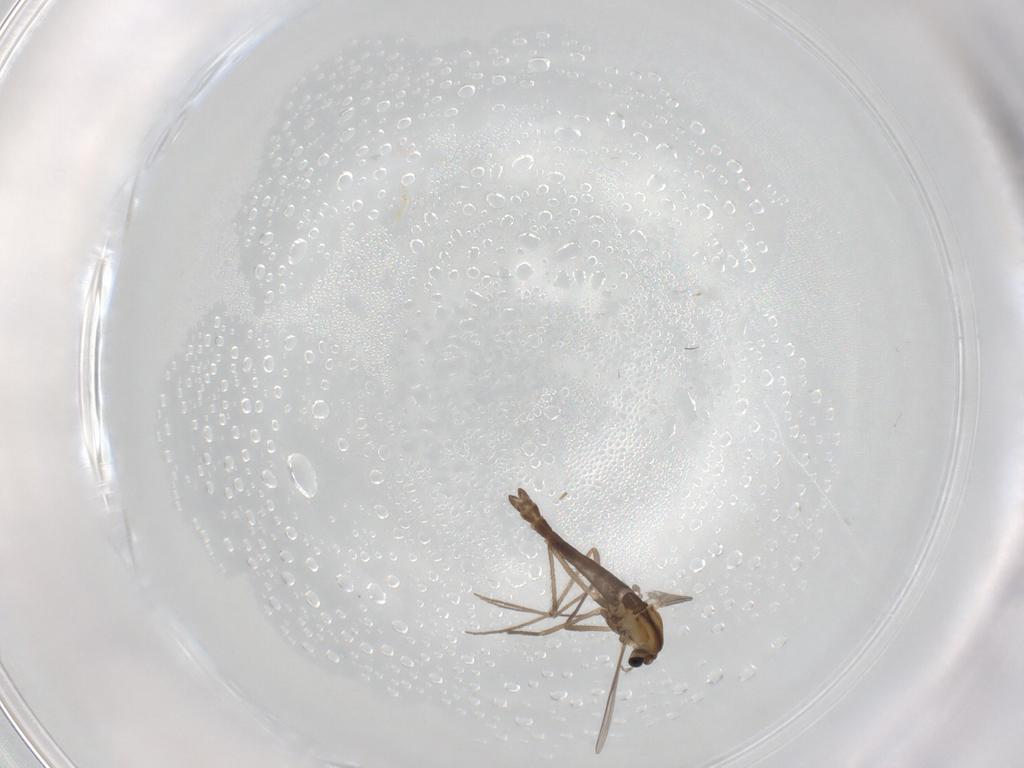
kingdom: Animalia
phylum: Arthropoda
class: Insecta
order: Diptera
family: Chironomidae
